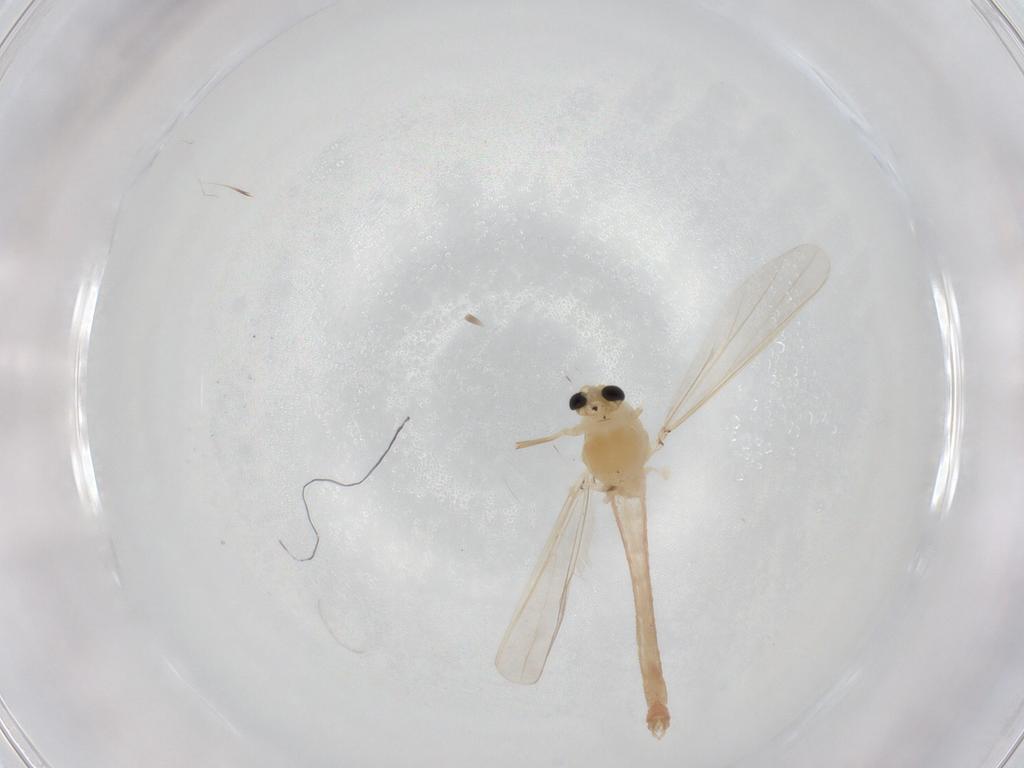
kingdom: Animalia
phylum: Arthropoda
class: Insecta
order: Diptera
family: Chironomidae
